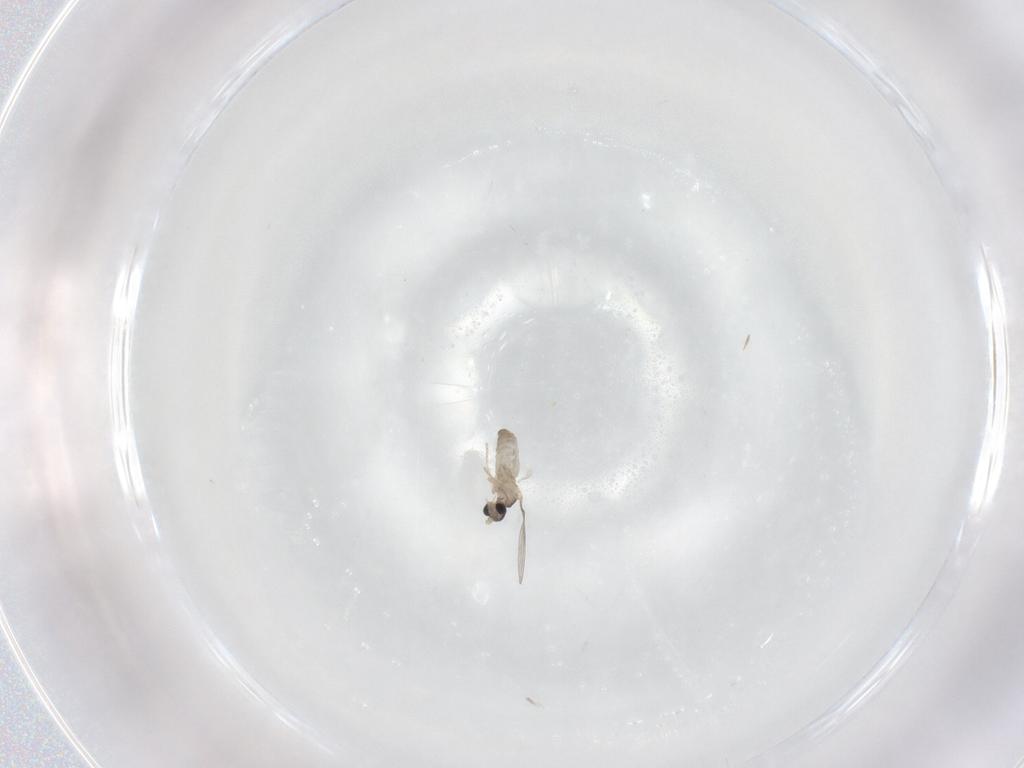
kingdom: Animalia
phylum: Arthropoda
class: Insecta
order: Diptera
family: Cecidomyiidae
